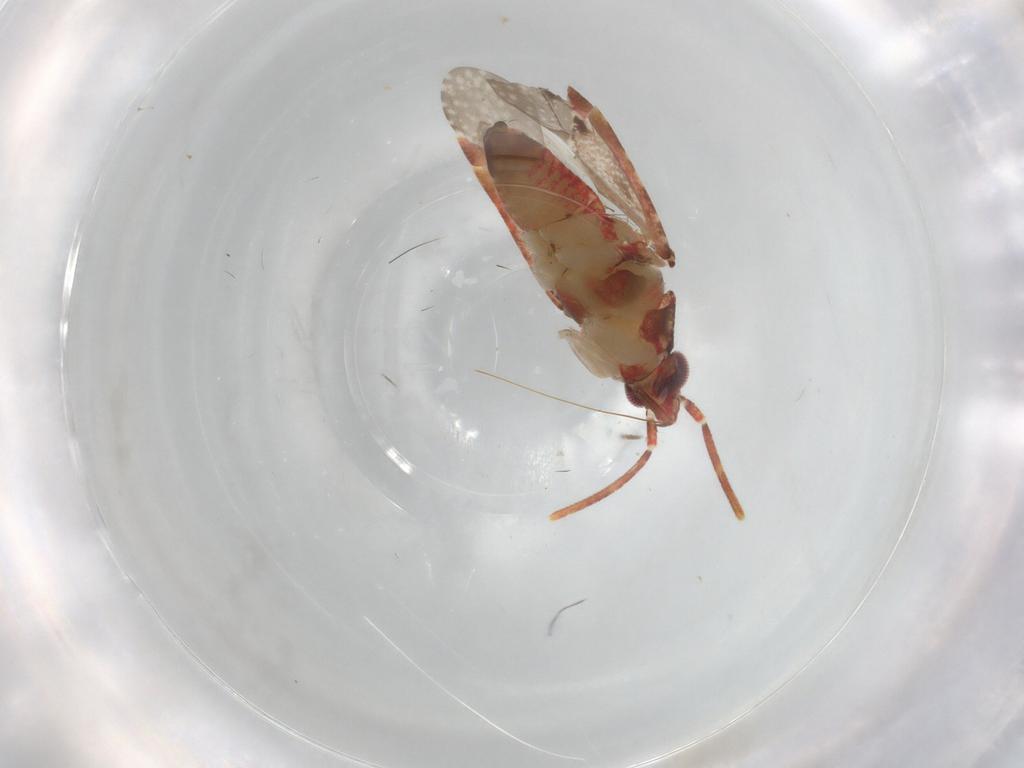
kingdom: Animalia
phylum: Arthropoda
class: Insecta
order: Hemiptera
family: Miridae
